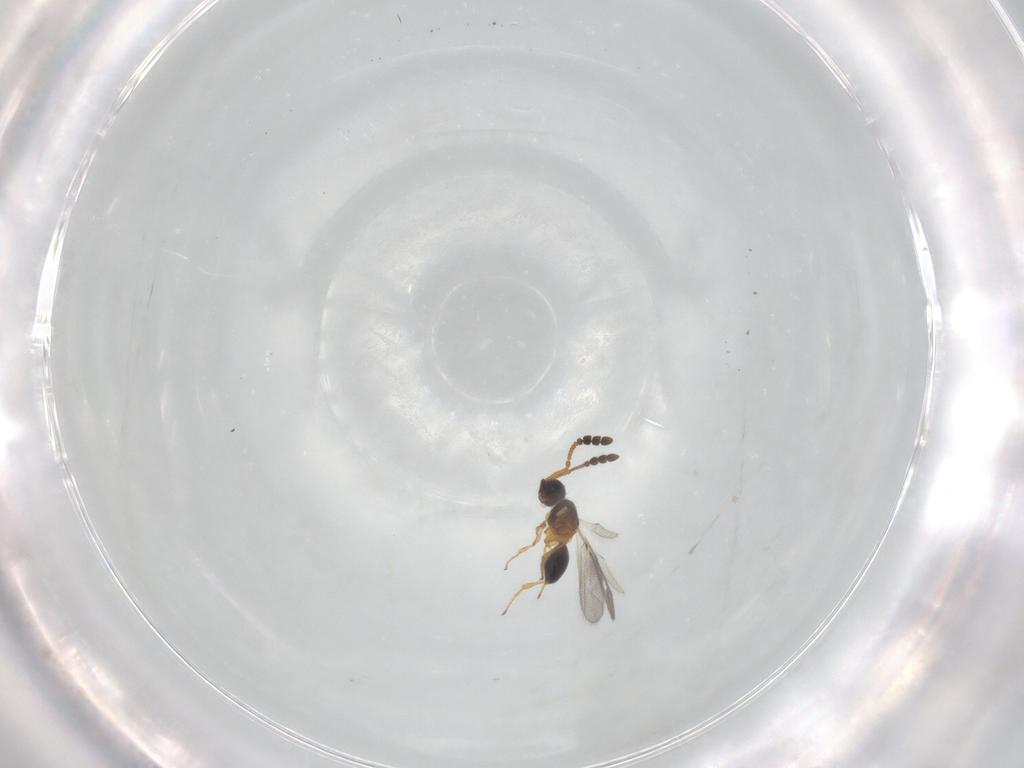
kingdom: Animalia
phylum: Arthropoda
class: Insecta
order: Hymenoptera
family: Diapriidae
